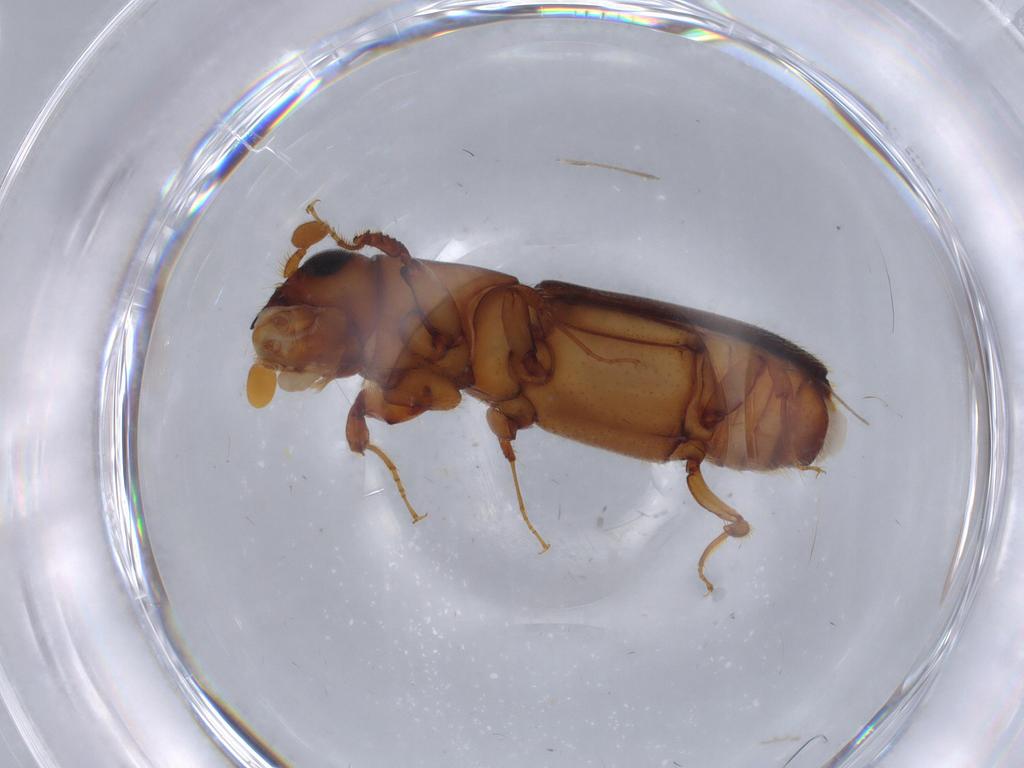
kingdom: Animalia
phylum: Arthropoda
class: Insecta
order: Coleoptera
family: Curculionidae
